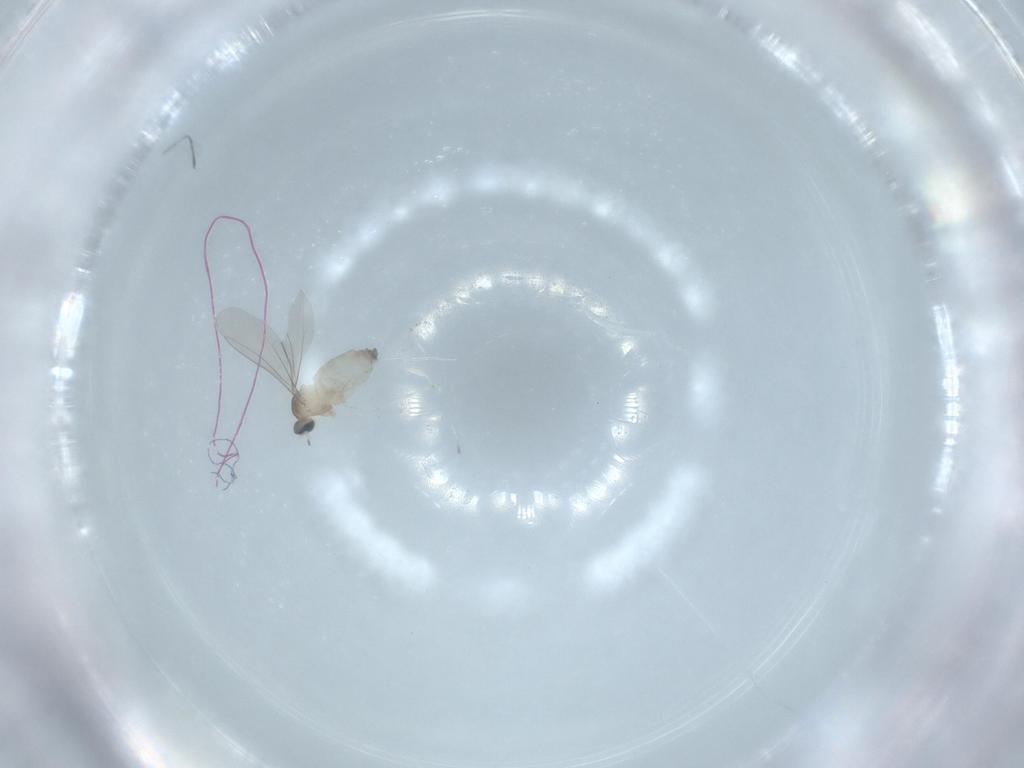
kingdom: Animalia
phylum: Arthropoda
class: Insecta
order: Diptera
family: Cecidomyiidae
